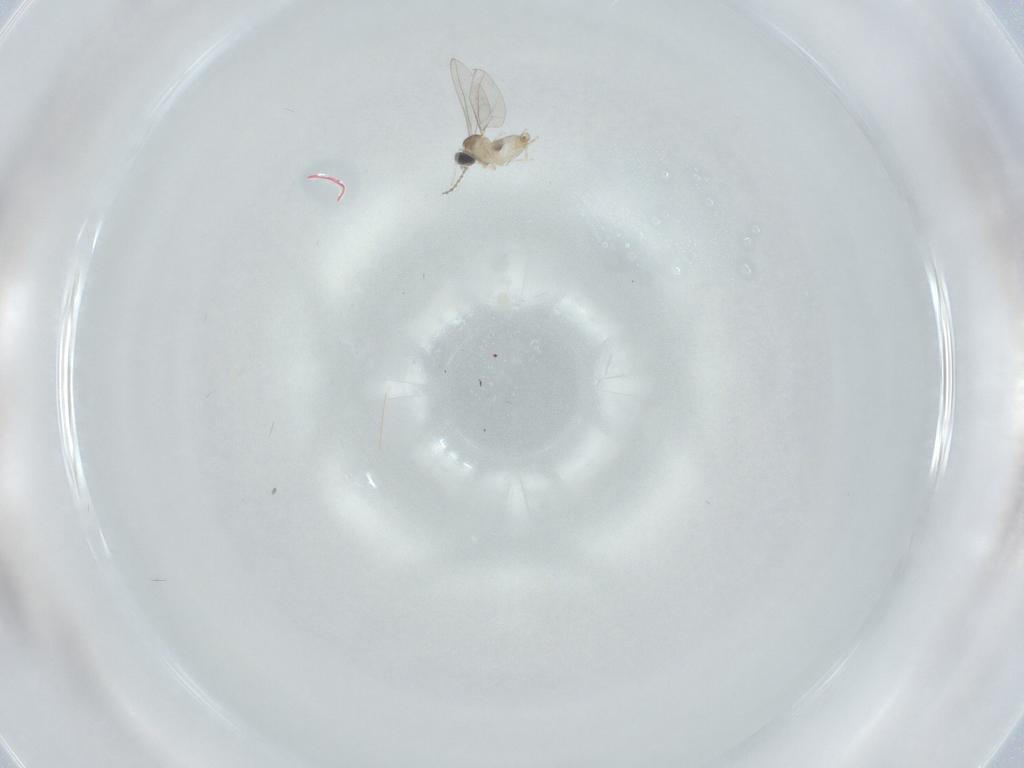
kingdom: Animalia
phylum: Arthropoda
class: Insecta
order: Diptera
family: Cecidomyiidae
